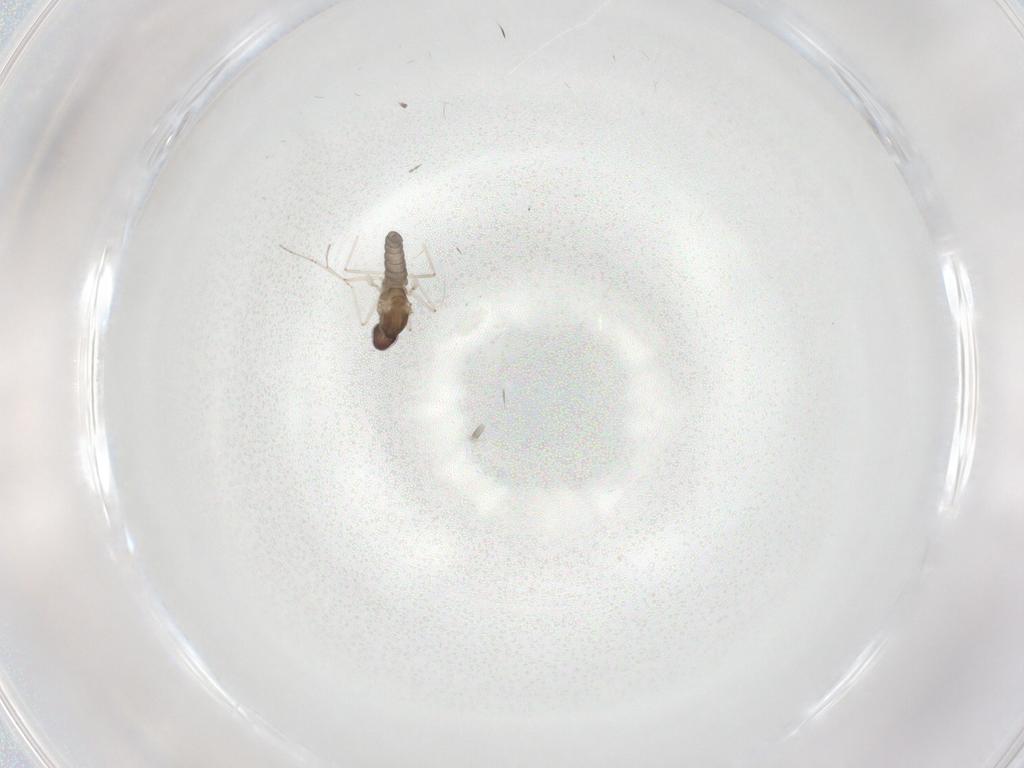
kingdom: Animalia
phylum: Arthropoda
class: Insecta
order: Diptera
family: Cecidomyiidae
